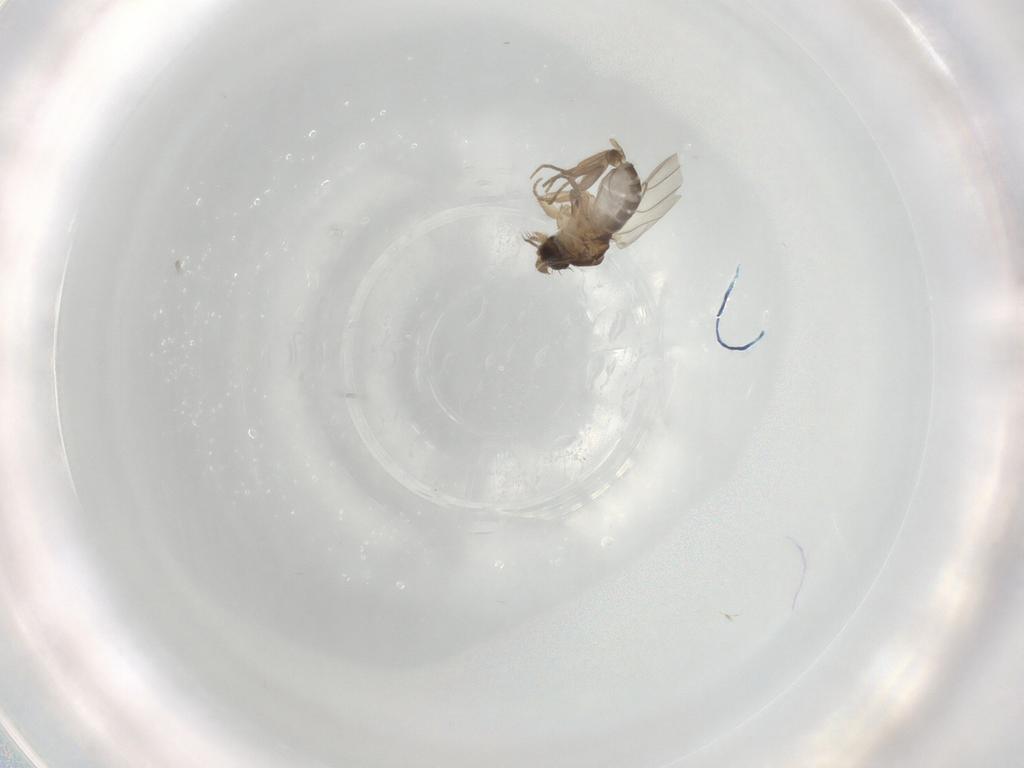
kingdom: Animalia
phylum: Arthropoda
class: Insecta
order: Diptera
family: Phoridae
